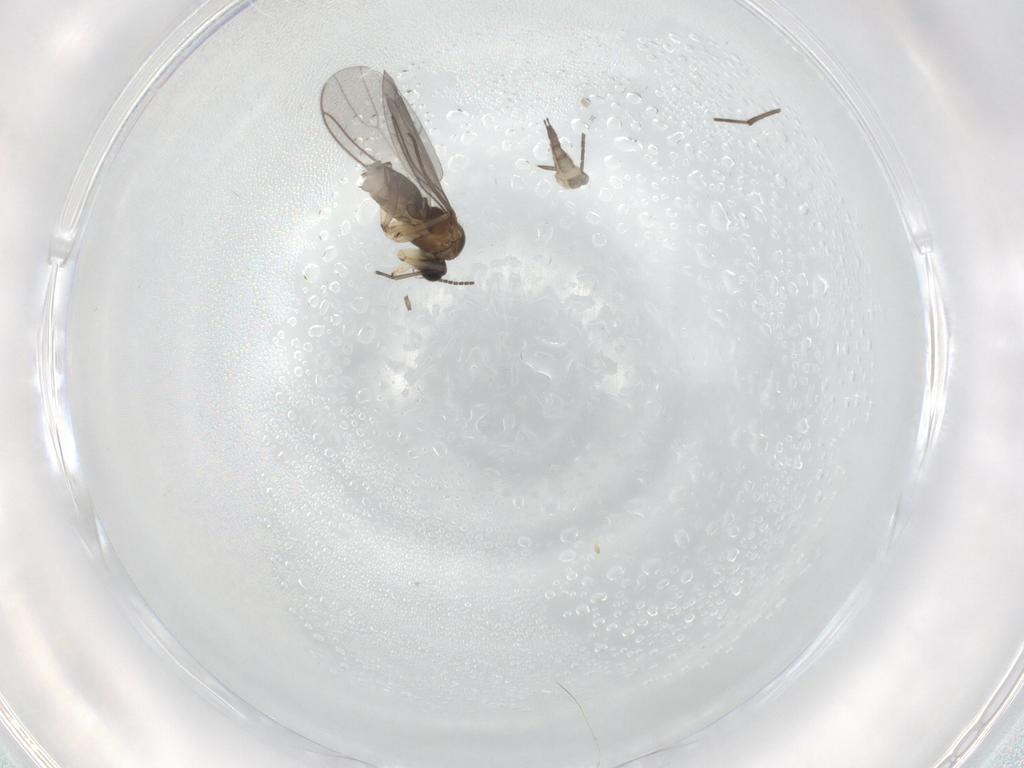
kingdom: Animalia
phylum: Arthropoda
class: Insecta
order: Diptera
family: Sciaridae
